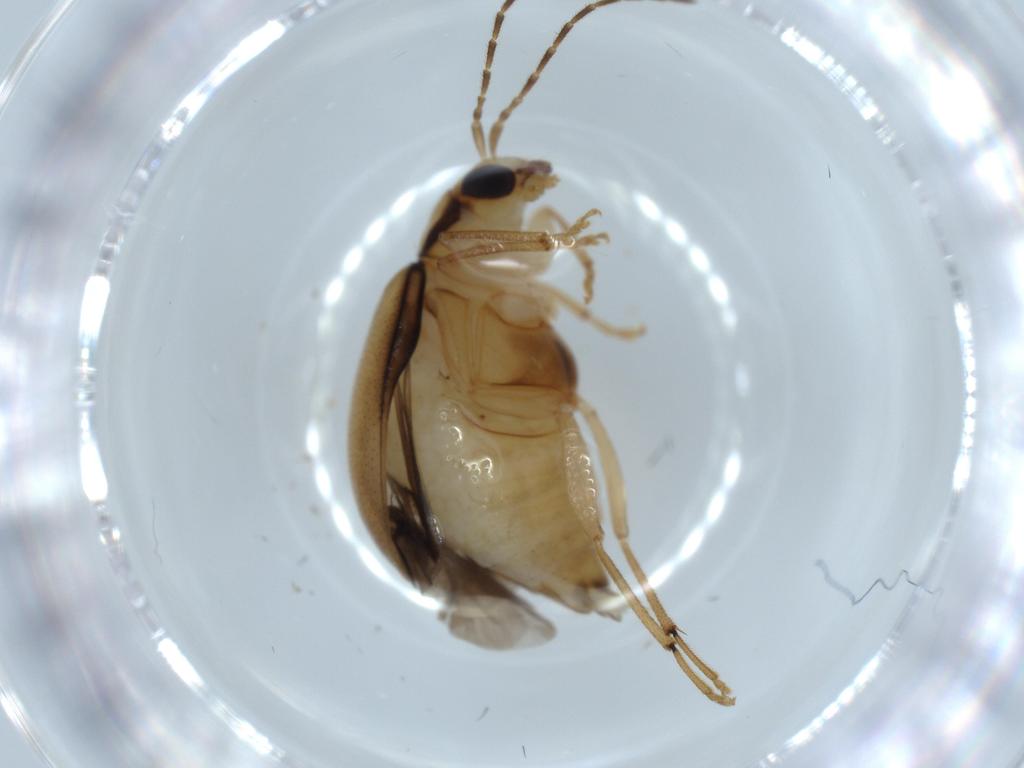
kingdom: Animalia
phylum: Arthropoda
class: Insecta
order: Coleoptera
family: Chrysomelidae
